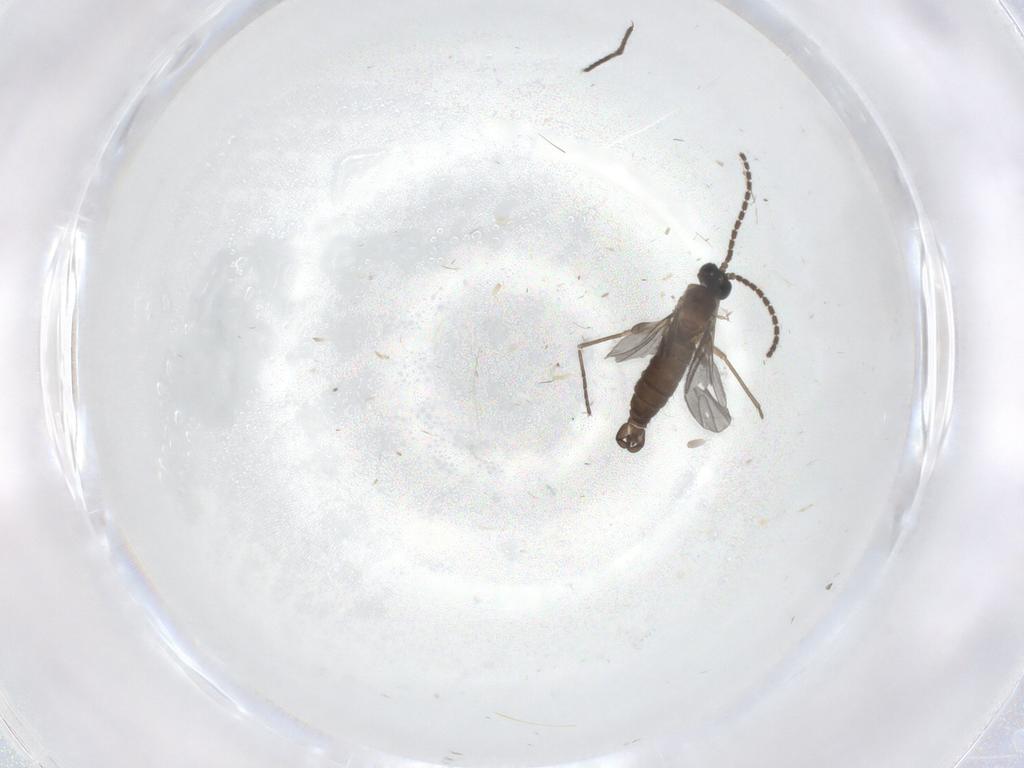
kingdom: Animalia
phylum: Arthropoda
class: Insecta
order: Diptera
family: Sciaridae
